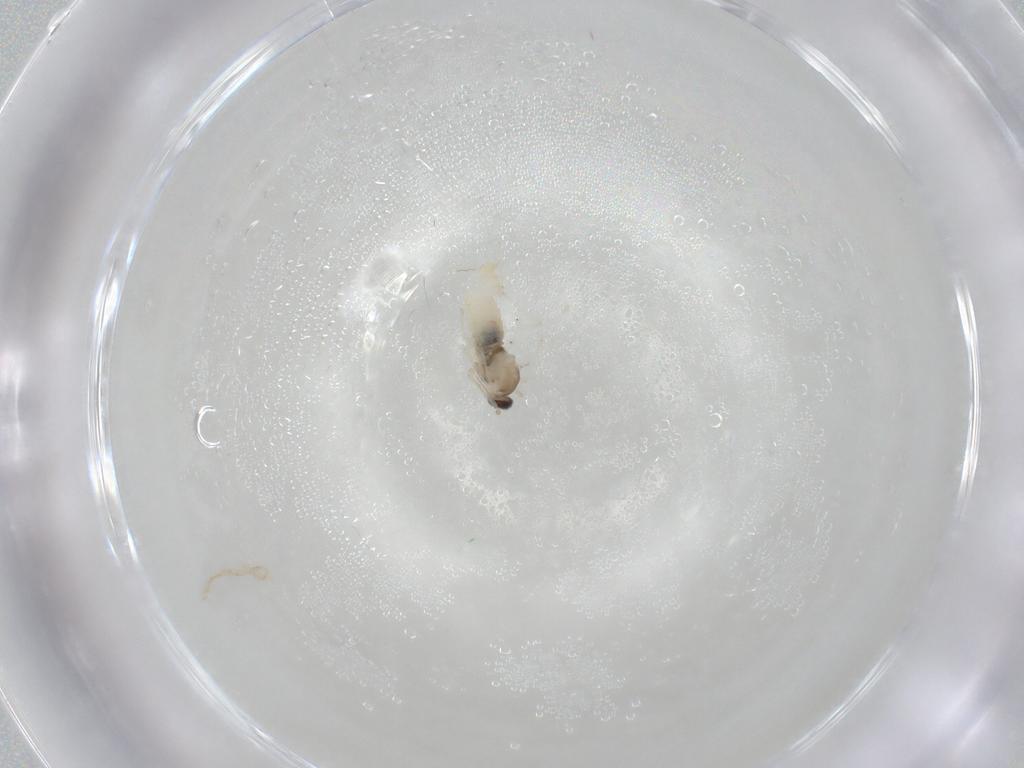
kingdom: Animalia
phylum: Arthropoda
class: Insecta
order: Diptera
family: Cecidomyiidae
